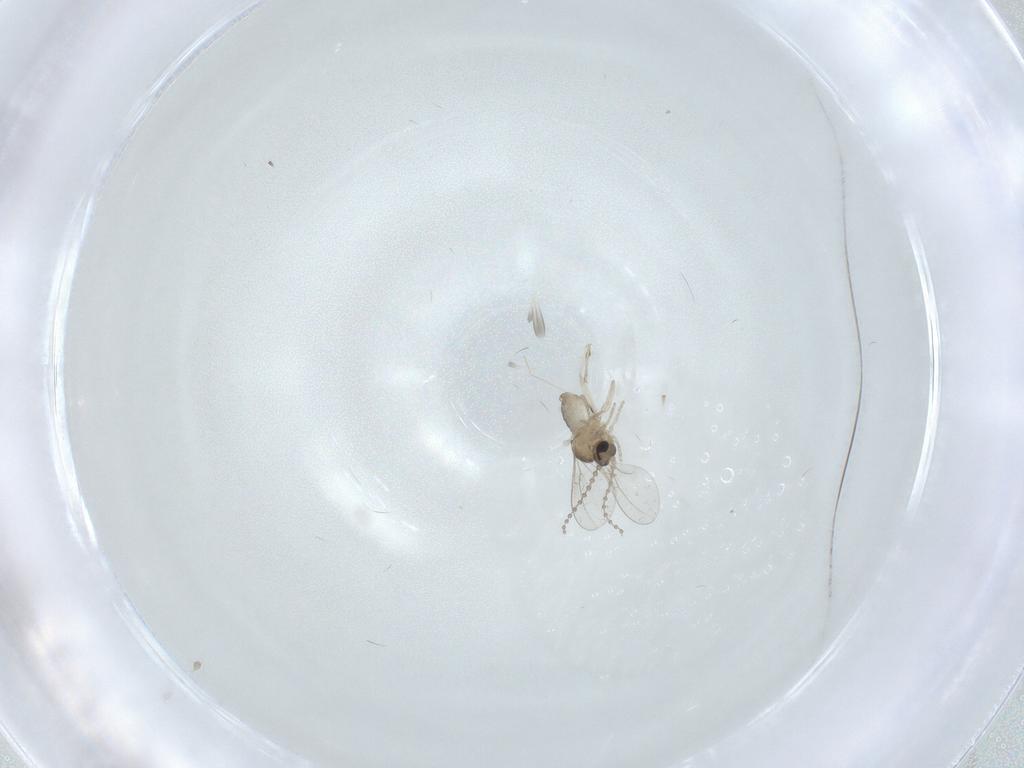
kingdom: Animalia
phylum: Arthropoda
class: Insecta
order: Diptera
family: Cecidomyiidae
